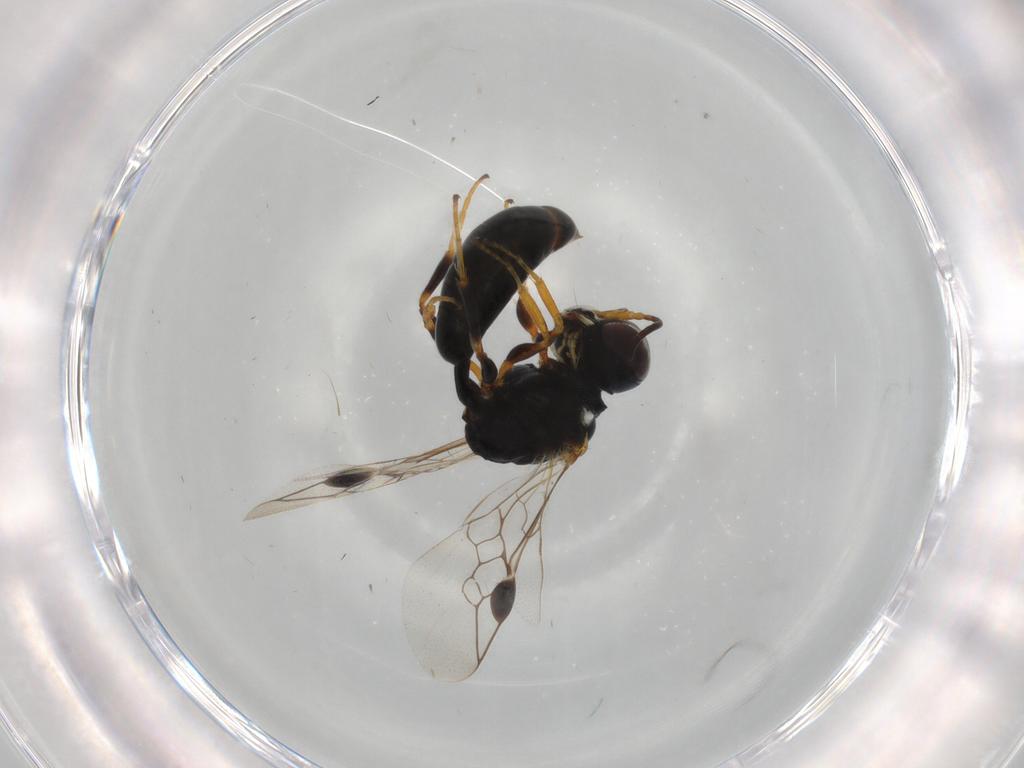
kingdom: Animalia
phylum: Arthropoda
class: Insecta
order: Hymenoptera
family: Pemphredonidae
